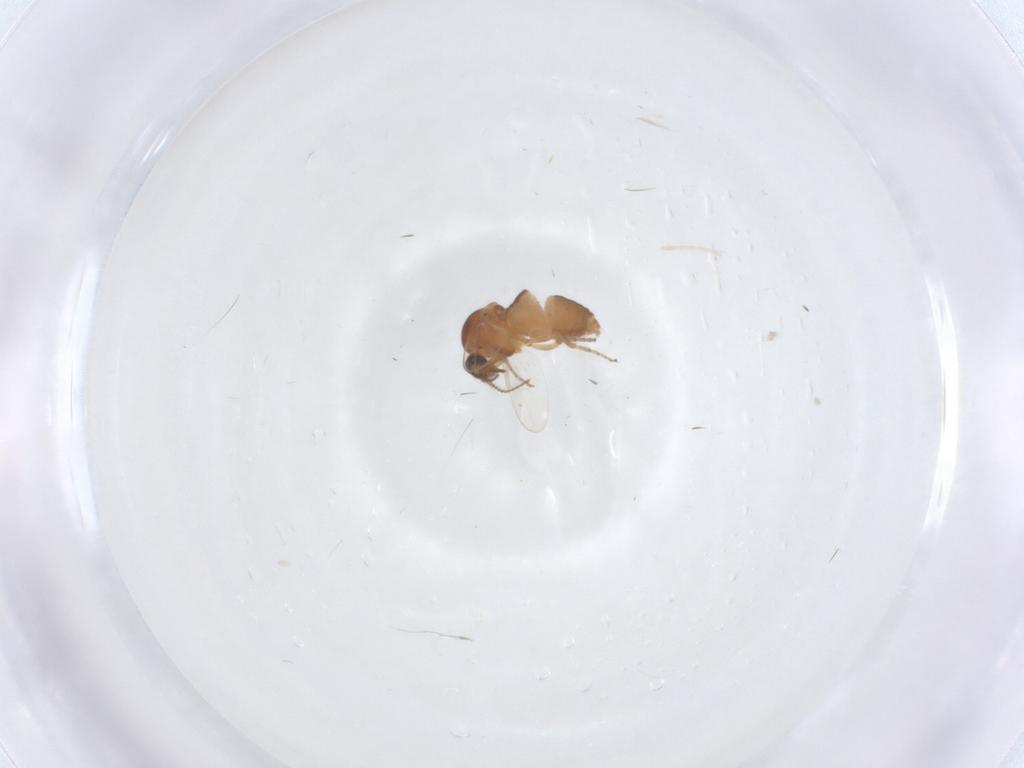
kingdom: Animalia
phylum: Arthropoda
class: Insecta
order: Diptera
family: Ceratopogonidae
